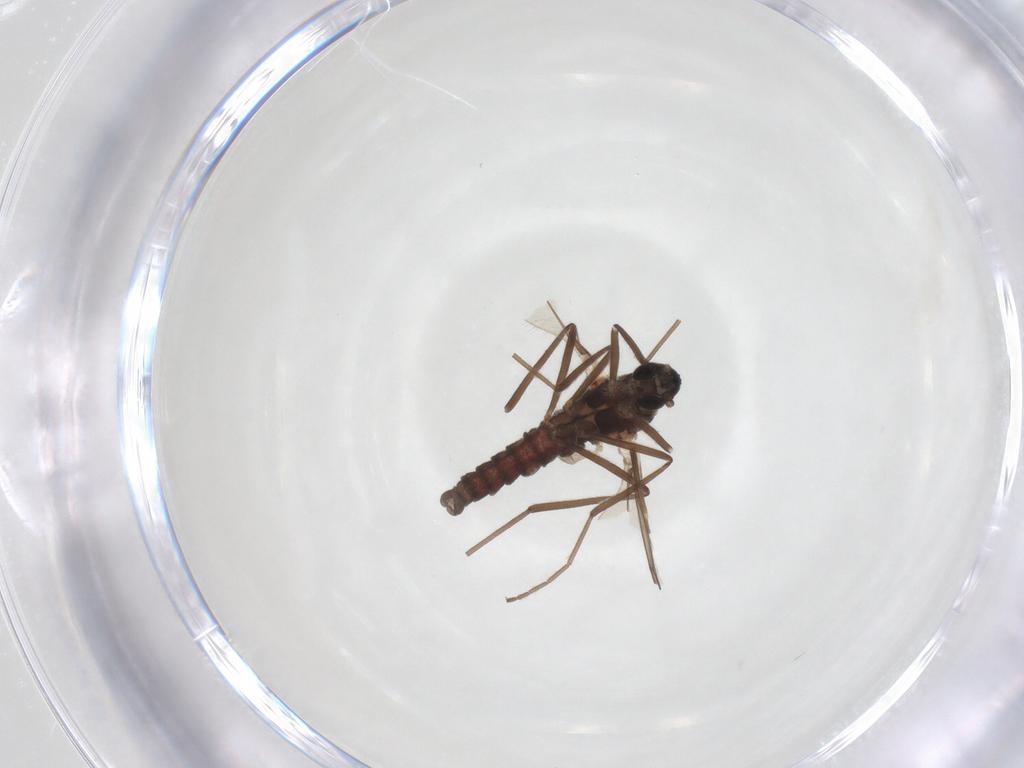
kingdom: Animalia
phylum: Arthropoda
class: Insecta
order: Diptera
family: Cecidomyiidae
